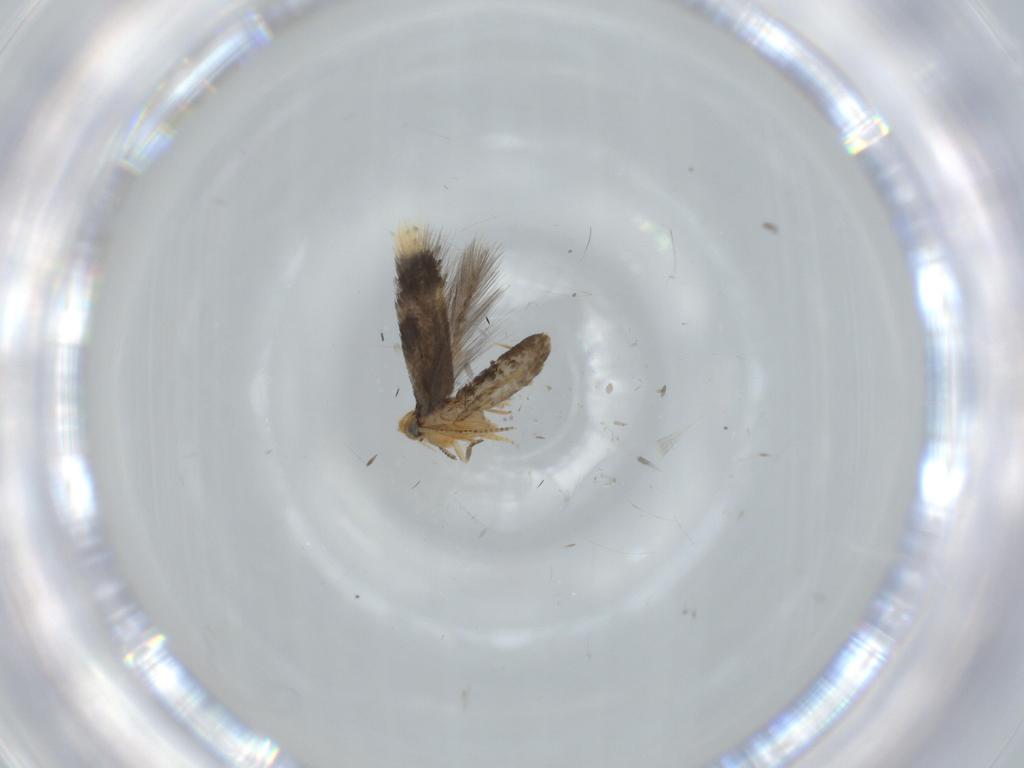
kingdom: Animalia
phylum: Arthropoda
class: Insecta
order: Lepidoptera
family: Nepticulidae
